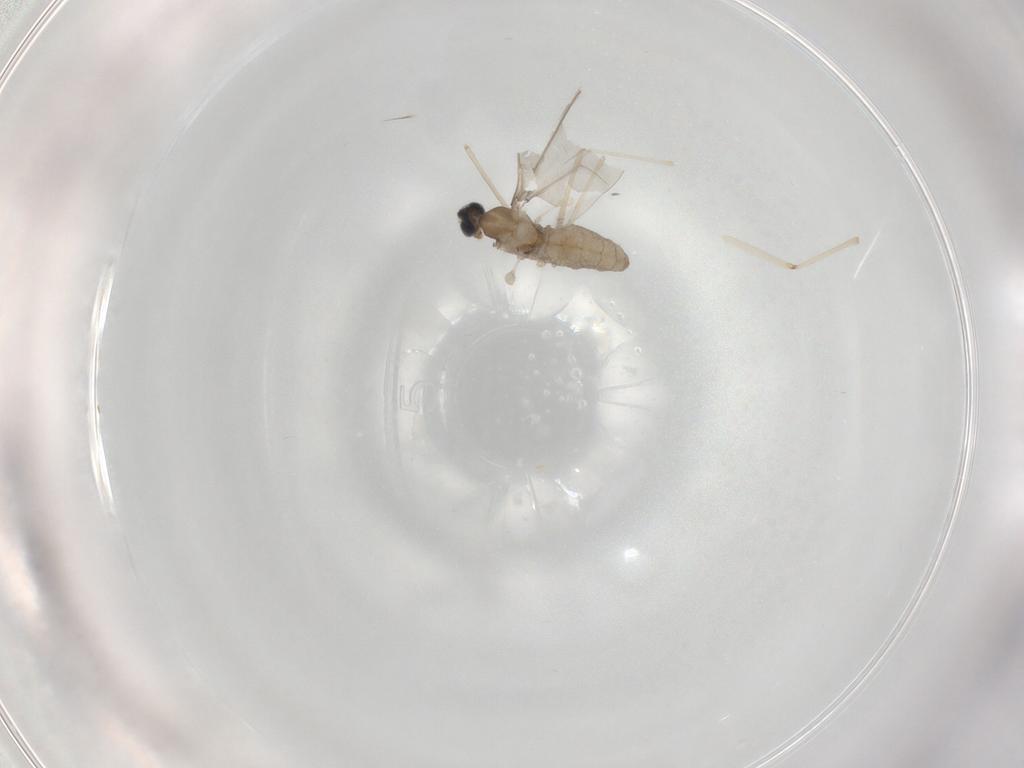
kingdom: Animalia
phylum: Arthropoda
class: Insecta
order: Diptera
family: Cecidomyiidae
